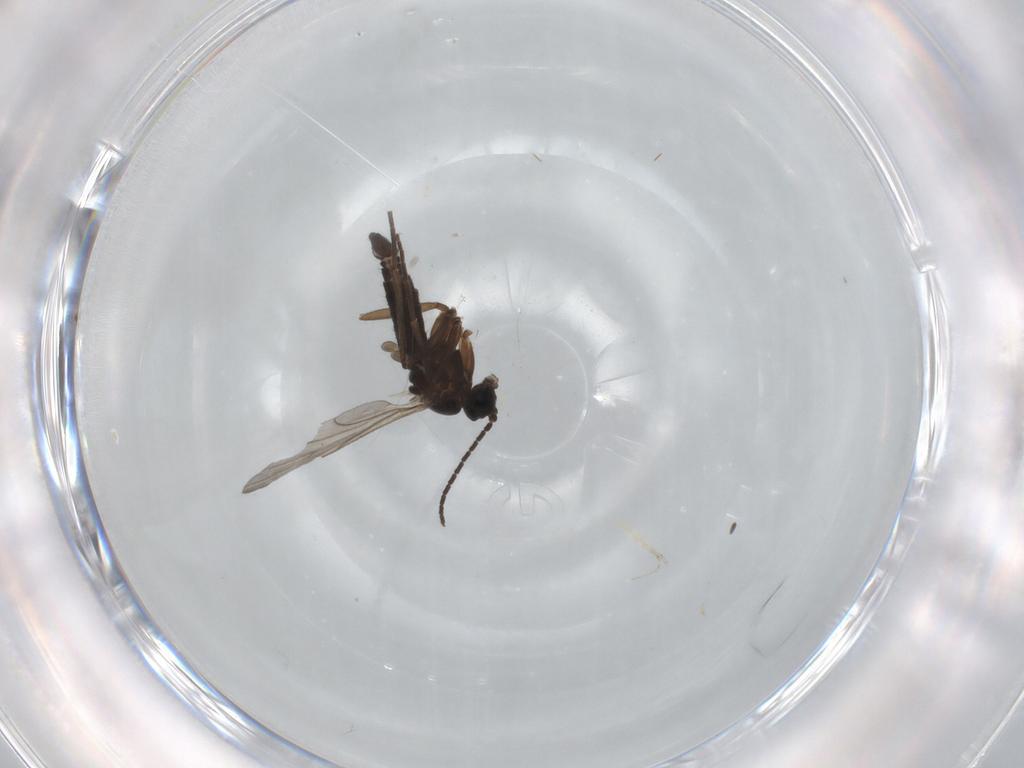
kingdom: Animalia
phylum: Arthropoda
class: Insecta
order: Diptera
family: Sciaridae
